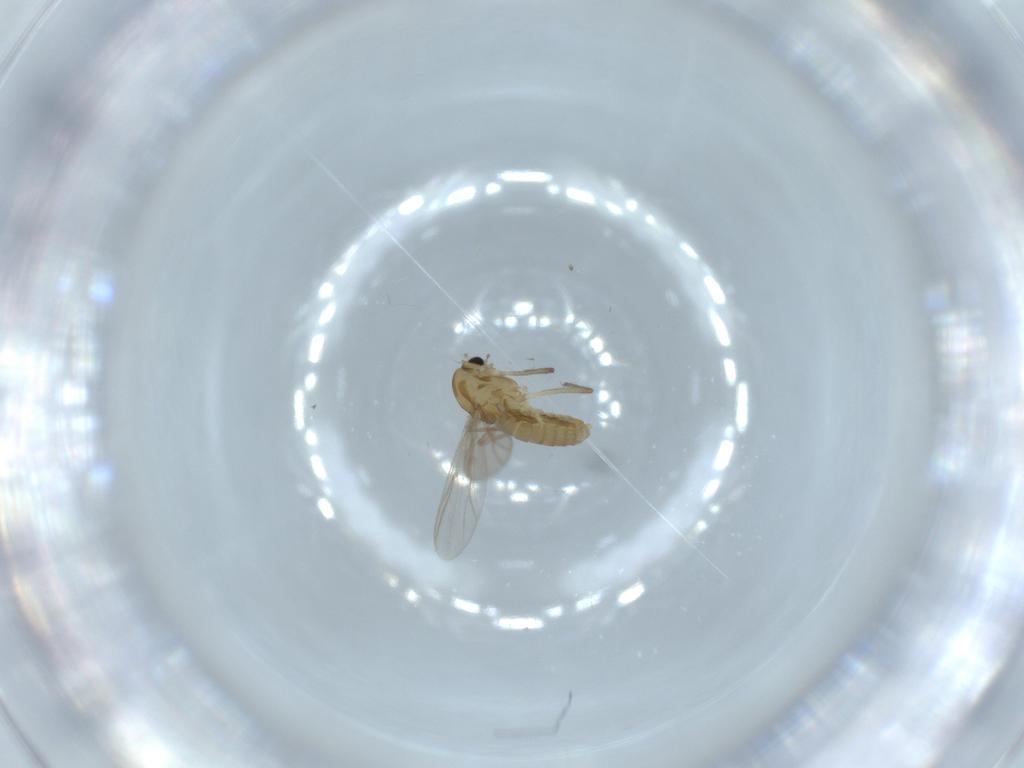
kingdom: Animalia
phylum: Arthropoda
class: Insecta
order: Diptera
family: Chironomidae
